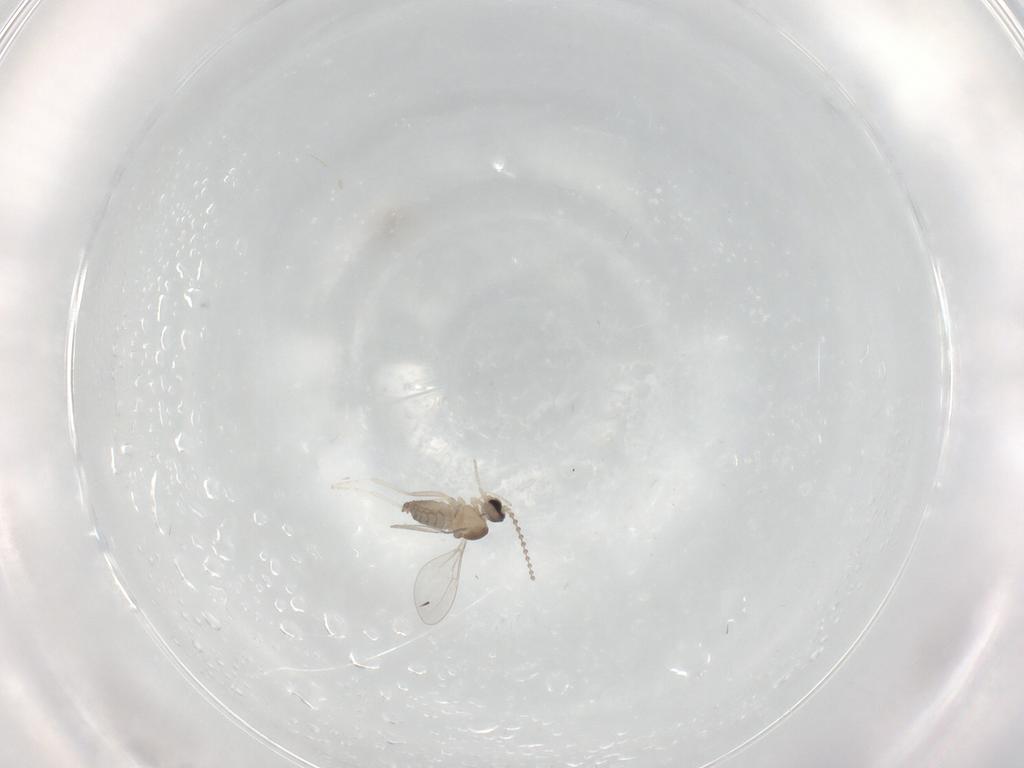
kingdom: Animalia
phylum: Arthropoda
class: Insecta
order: Diptera
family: Cecidomyiidae
